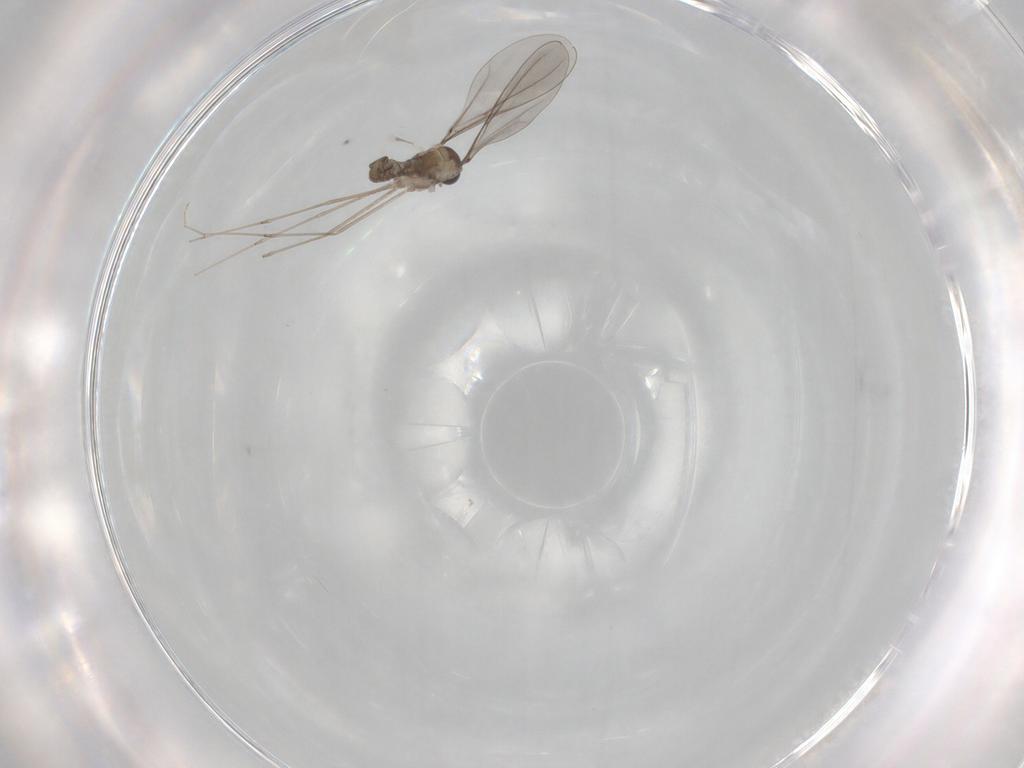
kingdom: Animalia
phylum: Arthropoda
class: Insecta
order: Diptera
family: Cecidomyiidae
